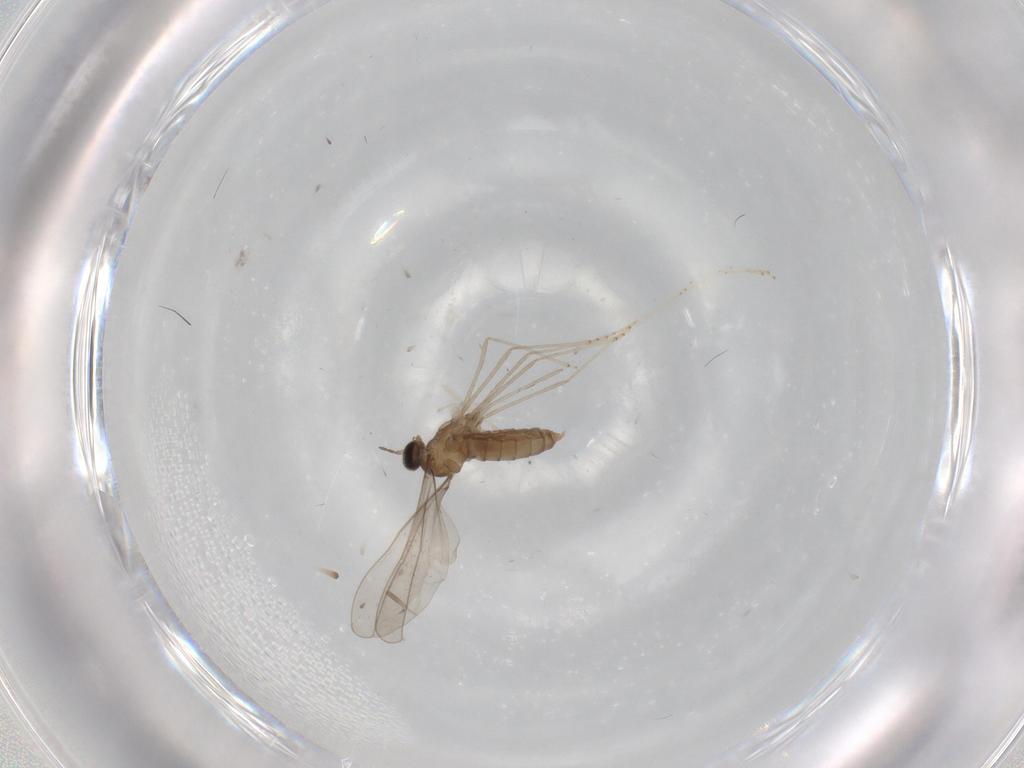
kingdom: Animalia
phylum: Arthropoda
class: Insecta
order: Diptera
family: Cecidomyiidae
